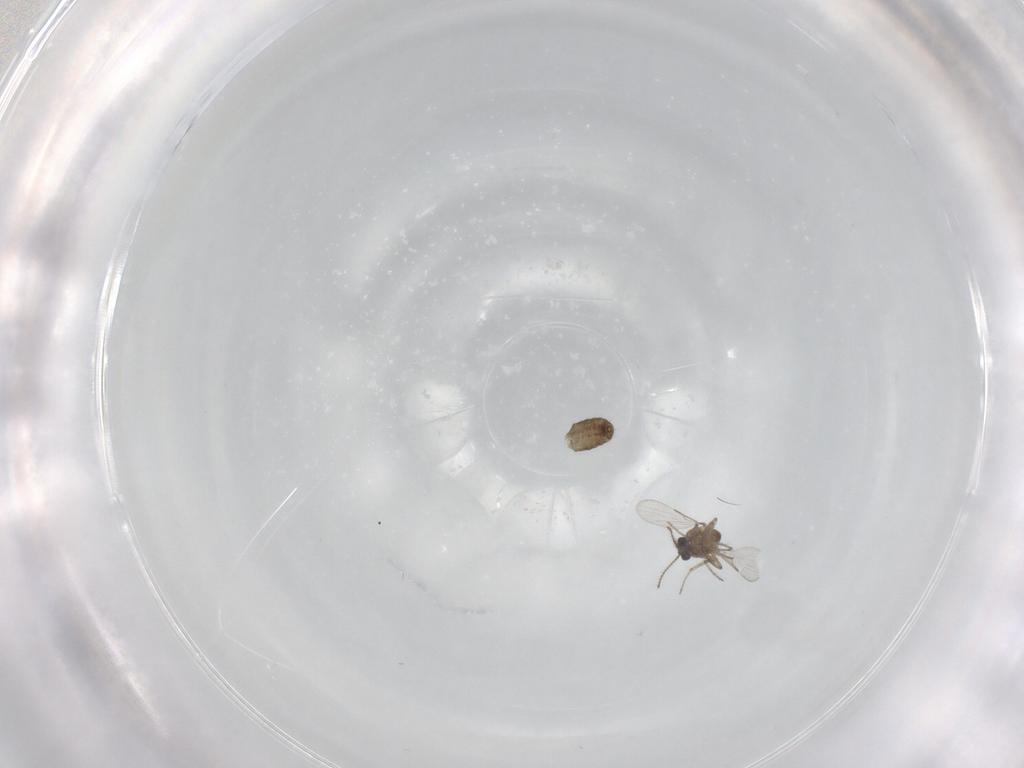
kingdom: Animalia
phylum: Arthropoda
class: Insecta
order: Diptera
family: Ceratopogonidae
